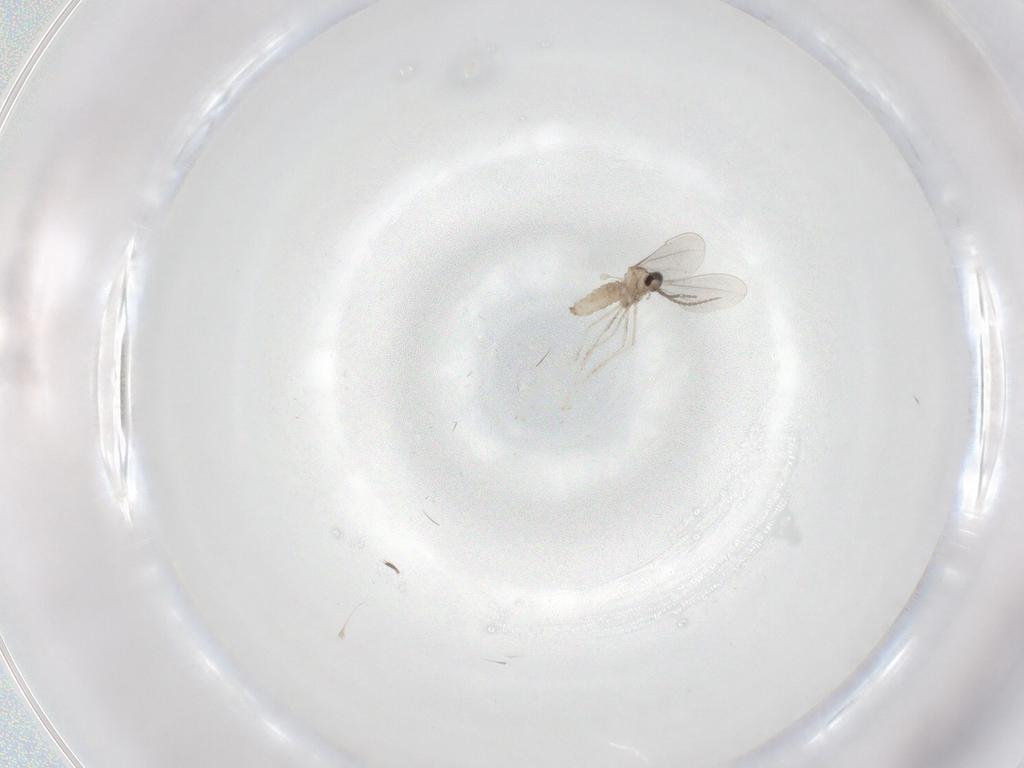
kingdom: Animalia
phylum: Arthropoda
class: Insecta
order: Diptera
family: Cecidomyiidae
